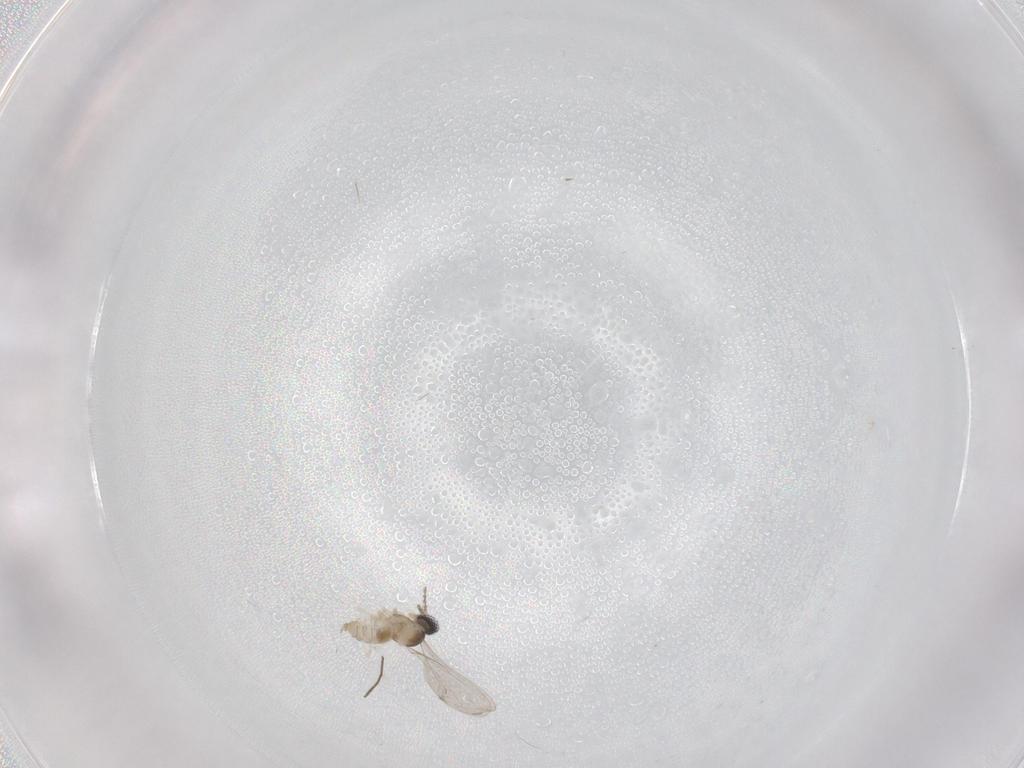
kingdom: Animalia
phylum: Arthropoda
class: Insecta
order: Diptera
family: Cecidomyiidae
